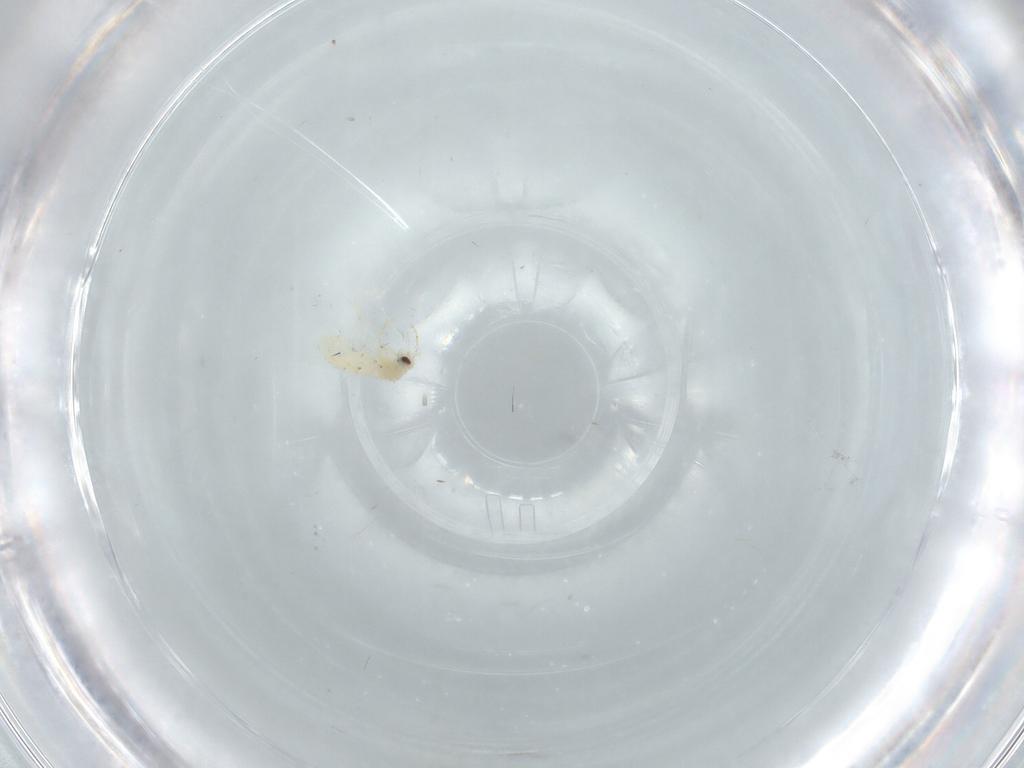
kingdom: Animalia
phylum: Arthropoda
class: Insecta
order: Hemiptera
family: Aleyrodidae
